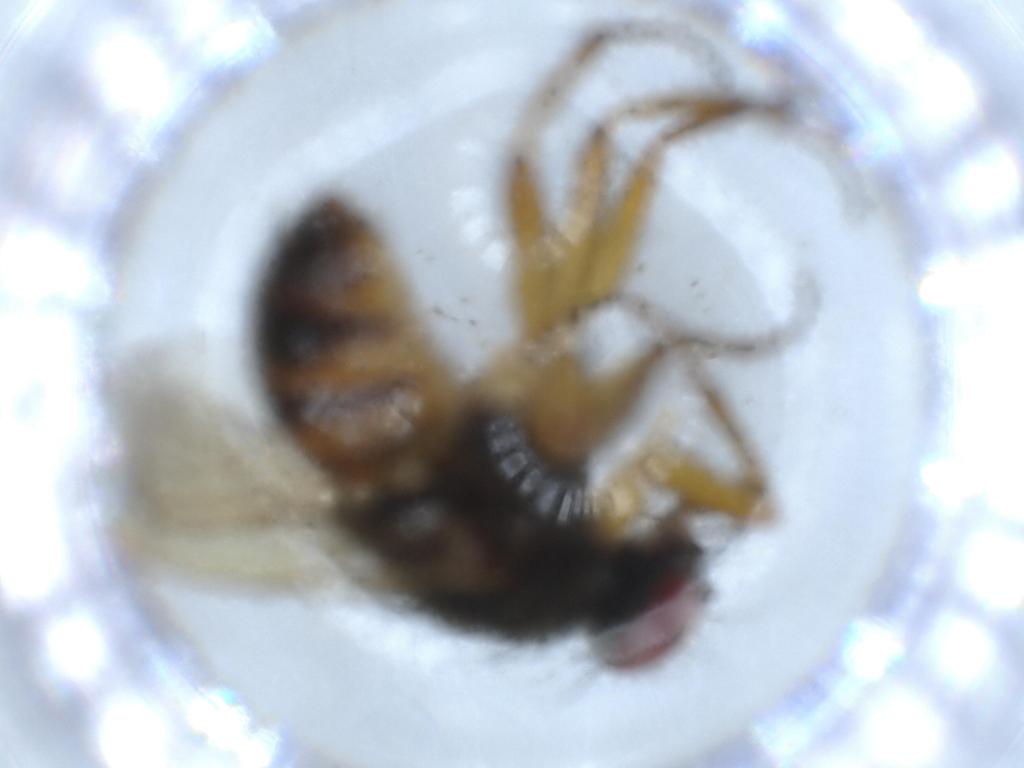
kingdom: Animalia
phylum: Arthropoda
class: Insecta
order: Diptera
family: Muscidae
